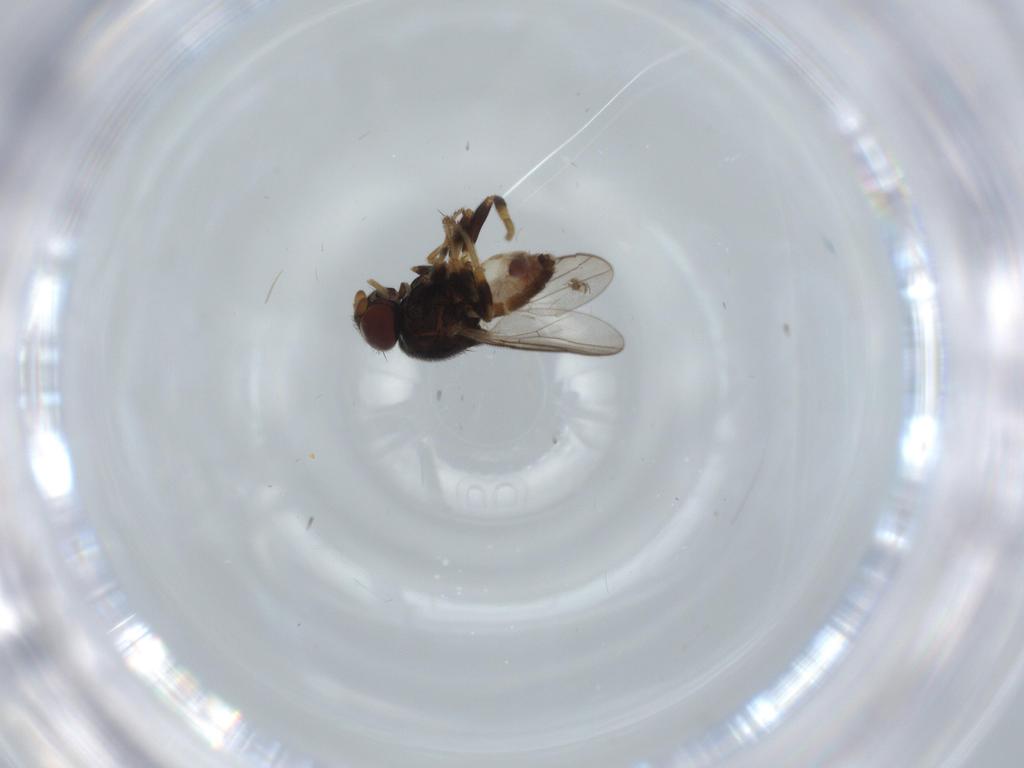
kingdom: Animalia
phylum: Arthropoda
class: Insecta
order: Diptera
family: Chloropidae
